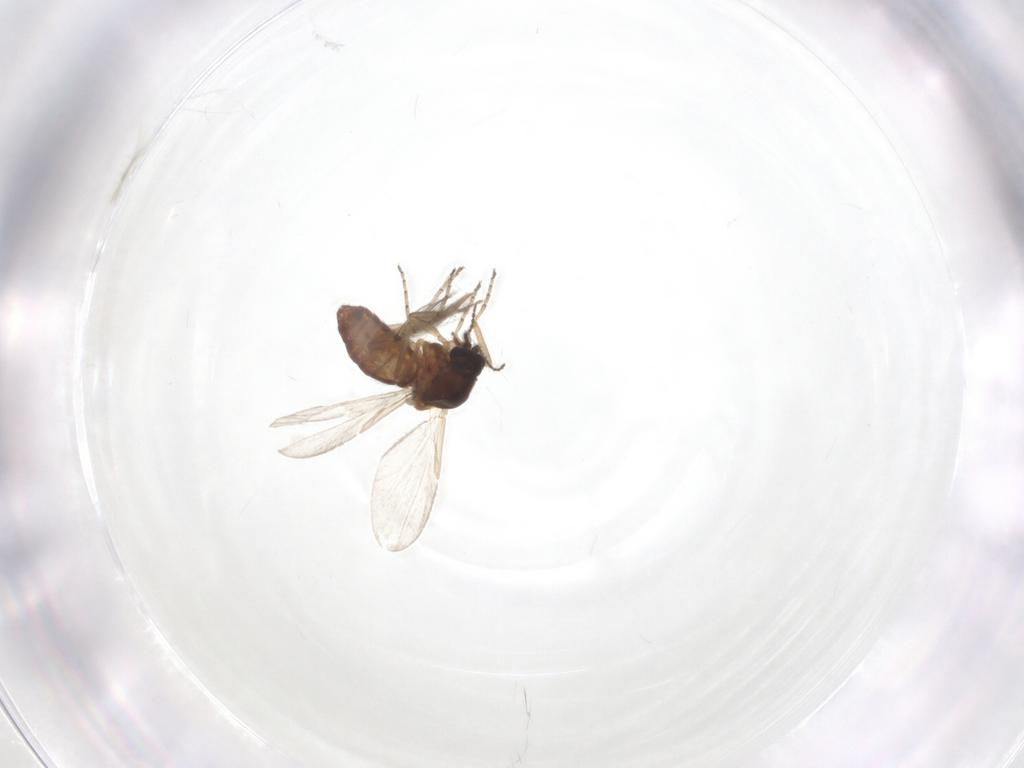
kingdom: Animalia
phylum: Arthropoda
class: Insecta
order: Diptera
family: Ceratopogonidae
